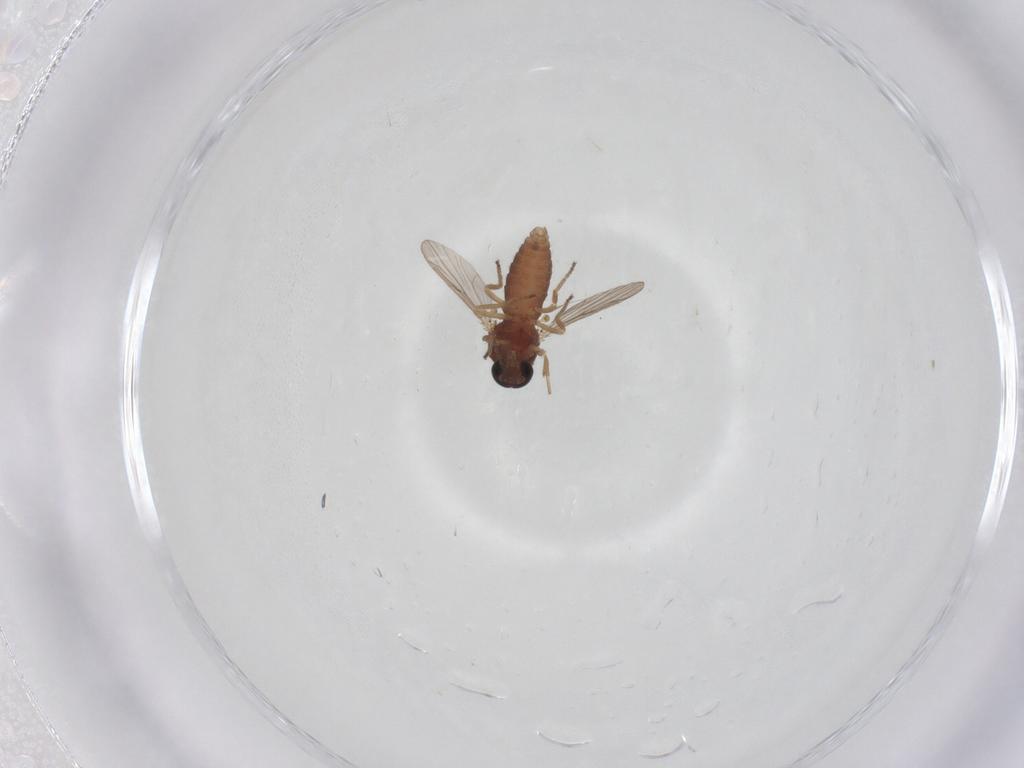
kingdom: Animalia
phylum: Arthropoda
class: Insecta
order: Diptera
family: Ceratopogonidae
